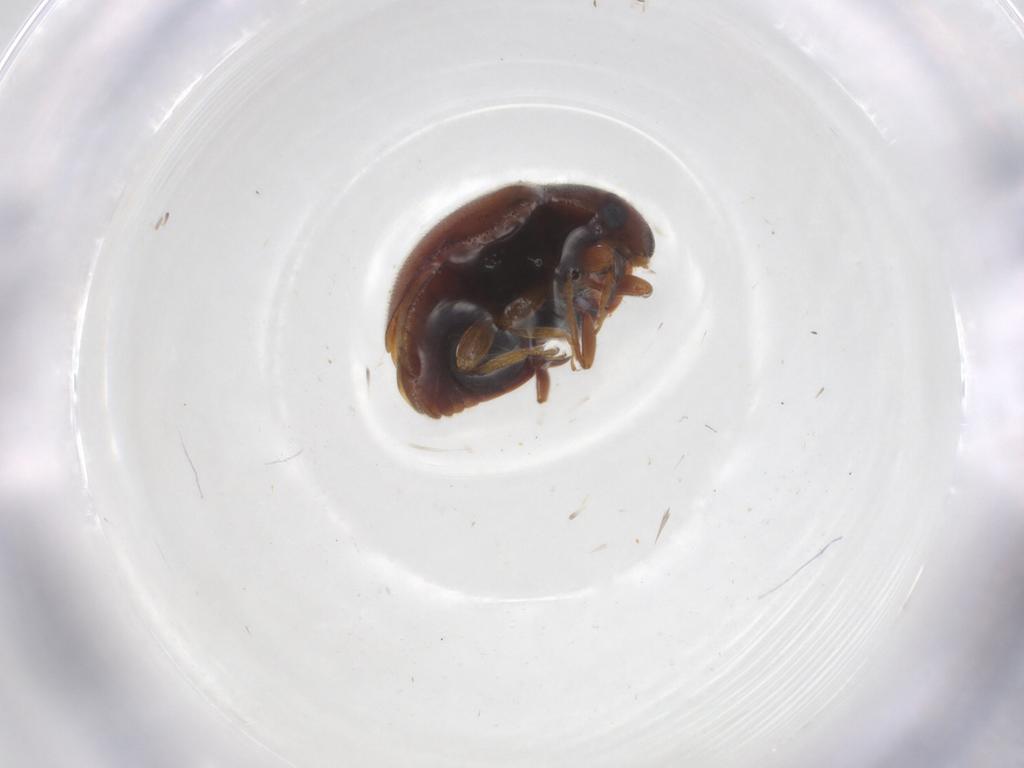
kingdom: Animalia
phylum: Arthropoda
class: Insecta
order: Coleoptera
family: Coccinellidae
